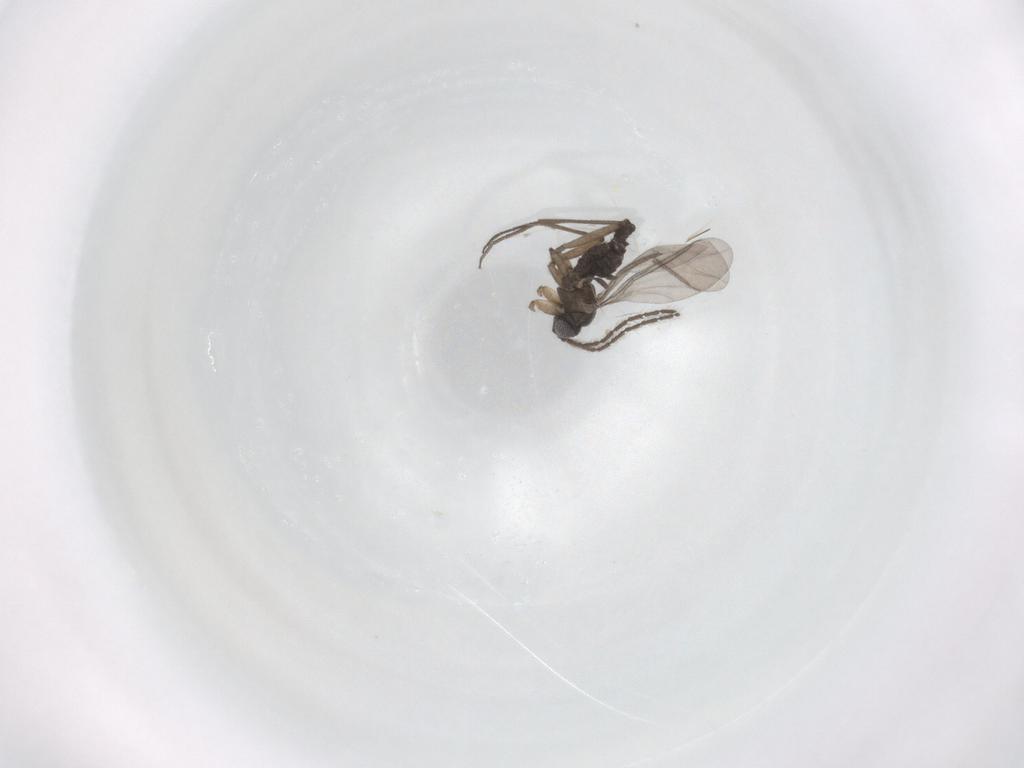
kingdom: Animalia
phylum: Arthropoda
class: Insecta
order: Diptera
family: Sciaridae
